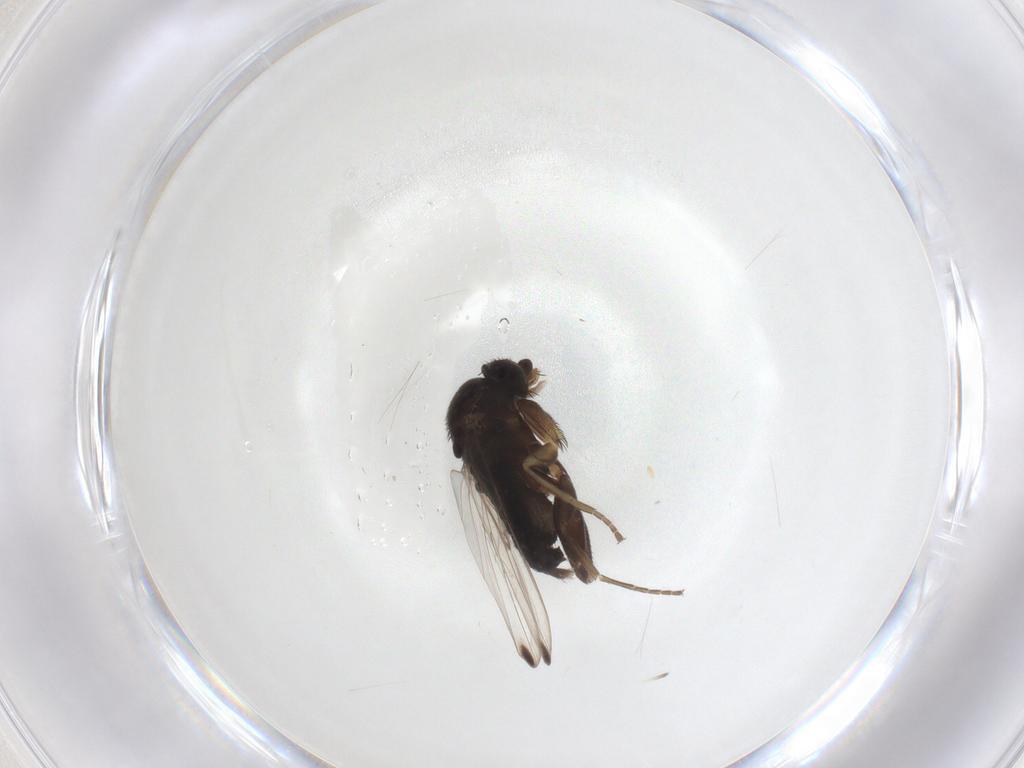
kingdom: Animalia
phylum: Arthropoda
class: Insecta
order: Diptera
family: Phoridae
